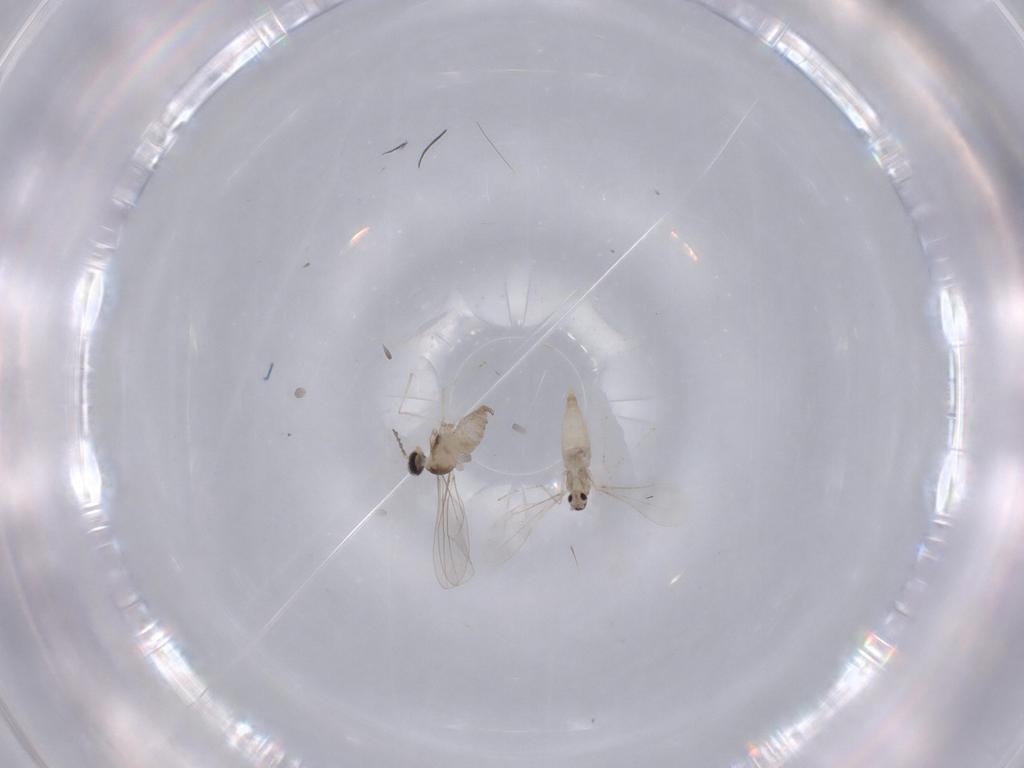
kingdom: Animalia
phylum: Arthropoda
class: Insecta
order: Diptera
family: Cecidomyiidae
